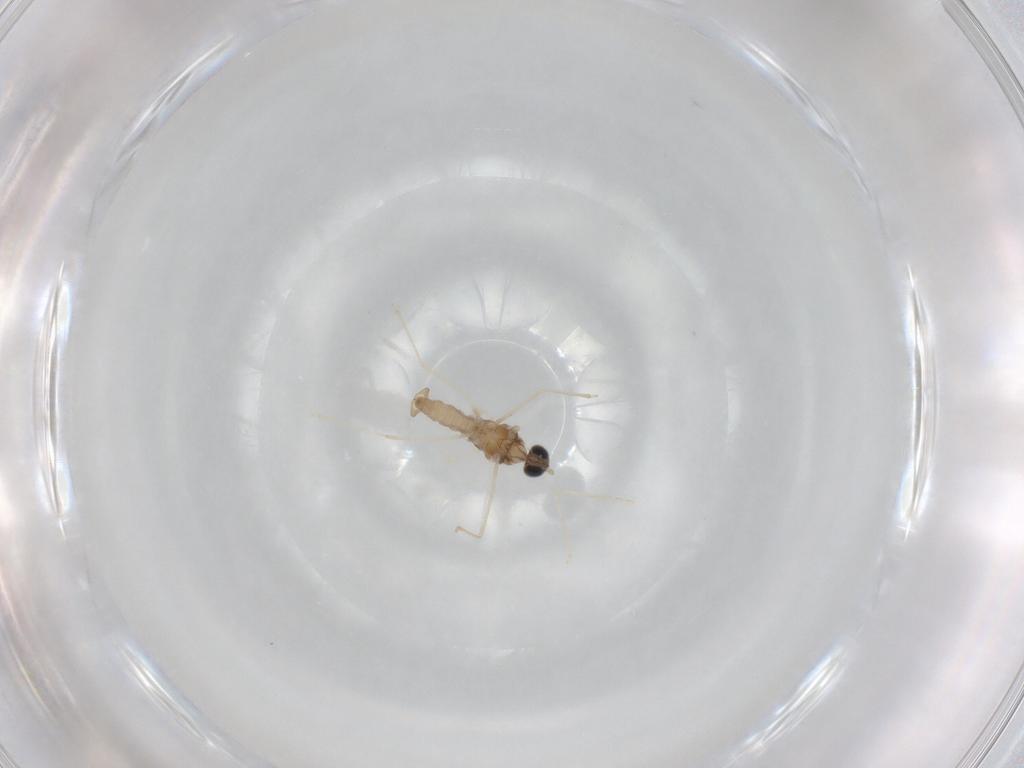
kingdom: Animalia
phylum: Arthropoda
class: Insecta
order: Diptera
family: Cecidomyiidae
